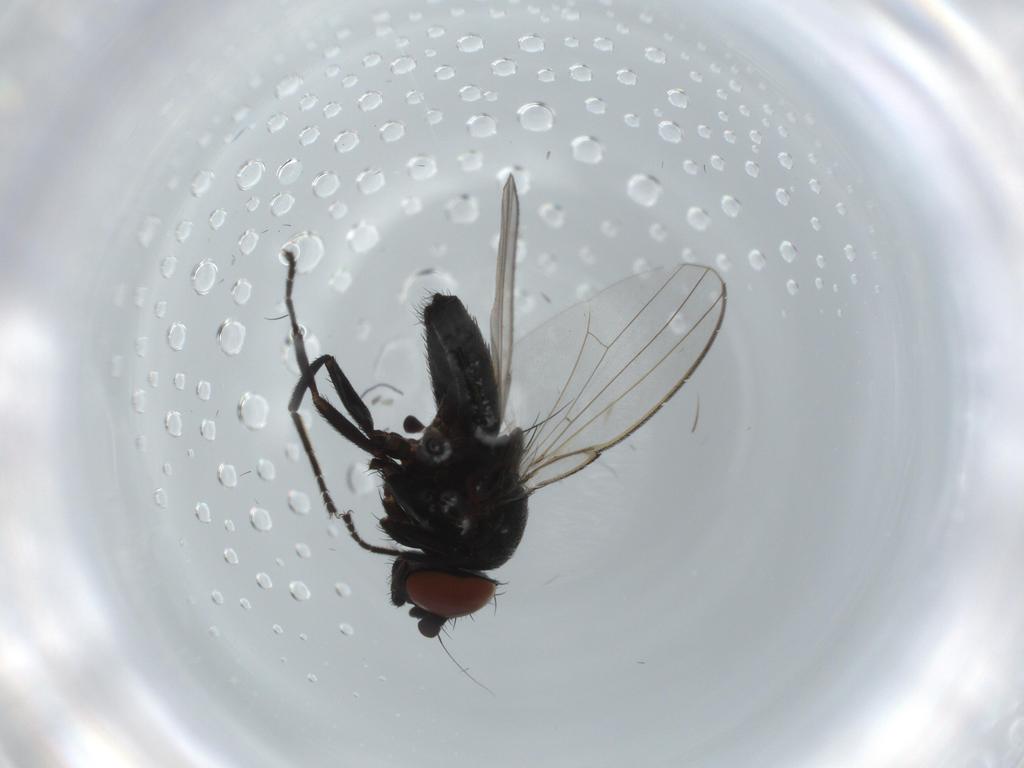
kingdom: Animalia
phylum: Arthropoda
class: Insecta
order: Diptera
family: Milichiidae
